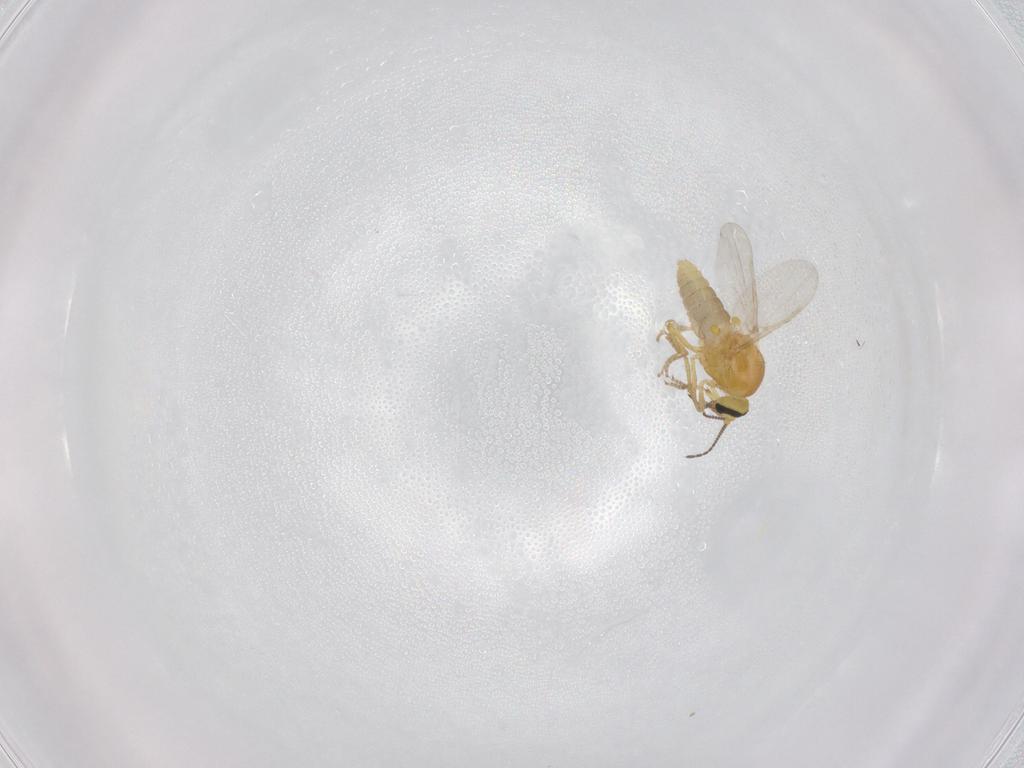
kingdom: Animalia
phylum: Arthropoda
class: Insecta
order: Diptera
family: Ceratopogonidae
